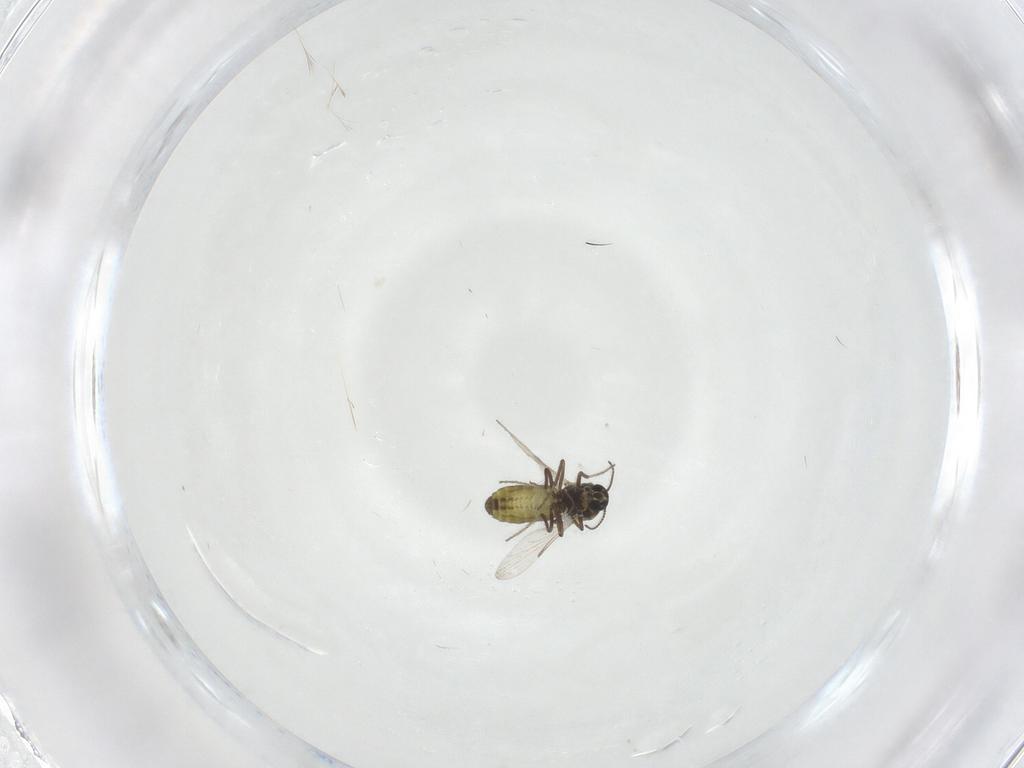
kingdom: Animalia
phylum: Arthropoda
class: Insecta
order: Diptera
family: Ceratopogonidae
